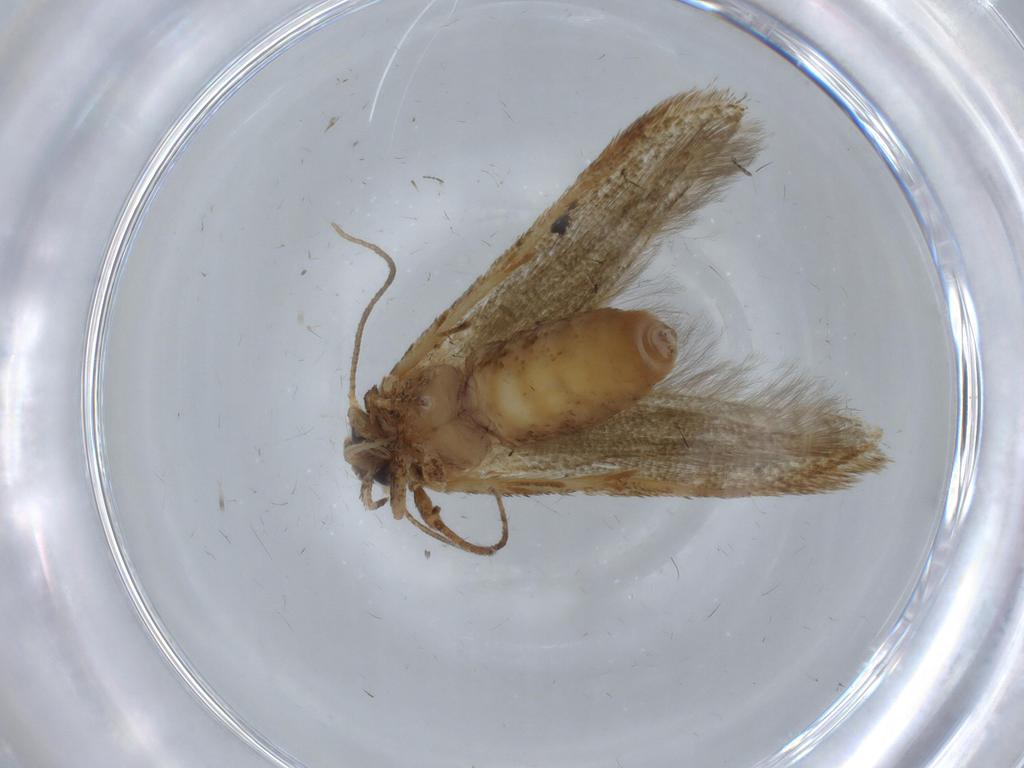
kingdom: Animalia
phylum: Arthropoda
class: Insecta
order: Lepidoptera
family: Blastobasidae
